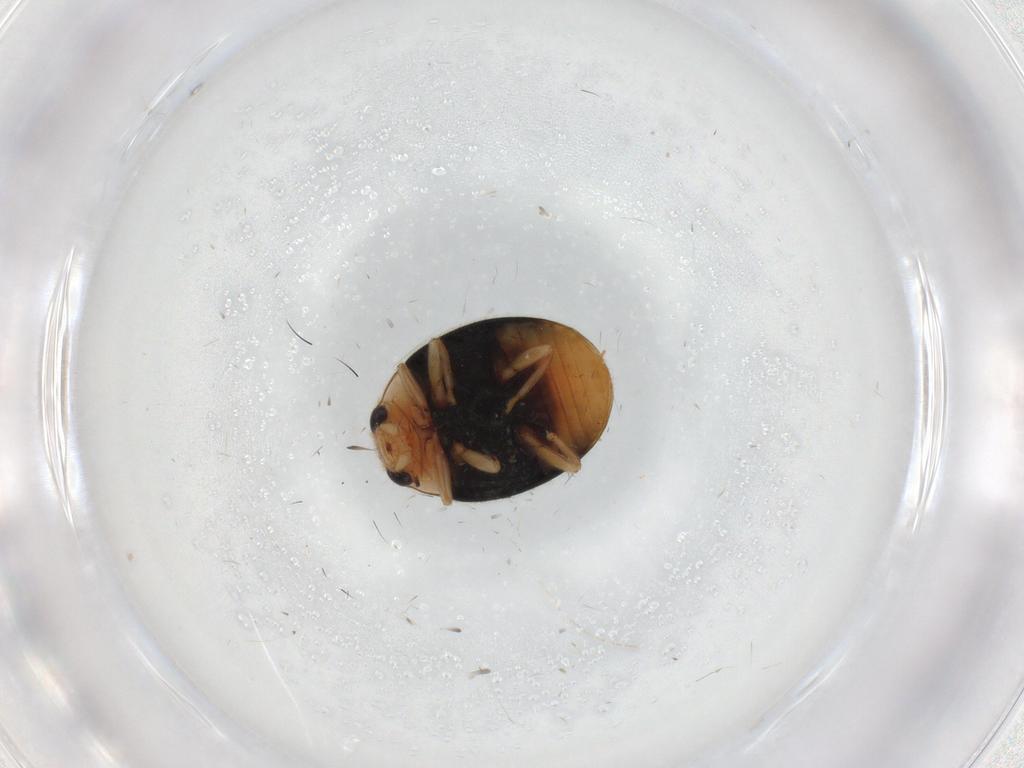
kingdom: Animalia
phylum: Arthropoda
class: Insecta
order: Coleoptera
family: Coccinellidae
